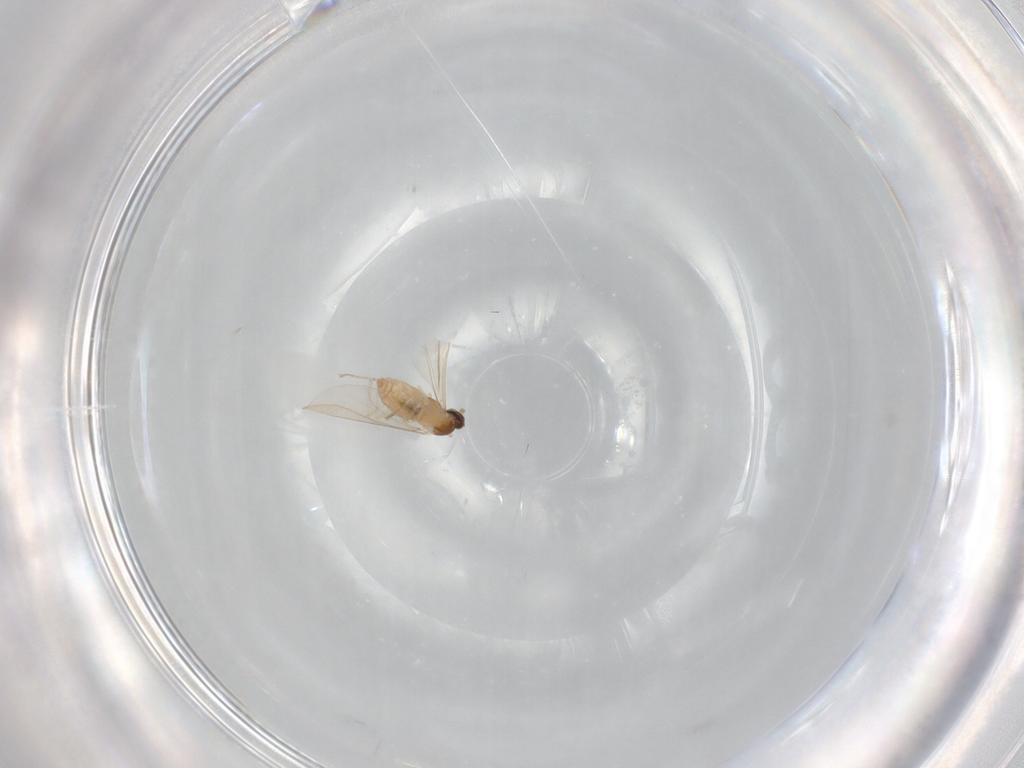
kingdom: Animalia
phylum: Arthropoda
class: Insecta
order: Diptera
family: Cecidomyiidae
